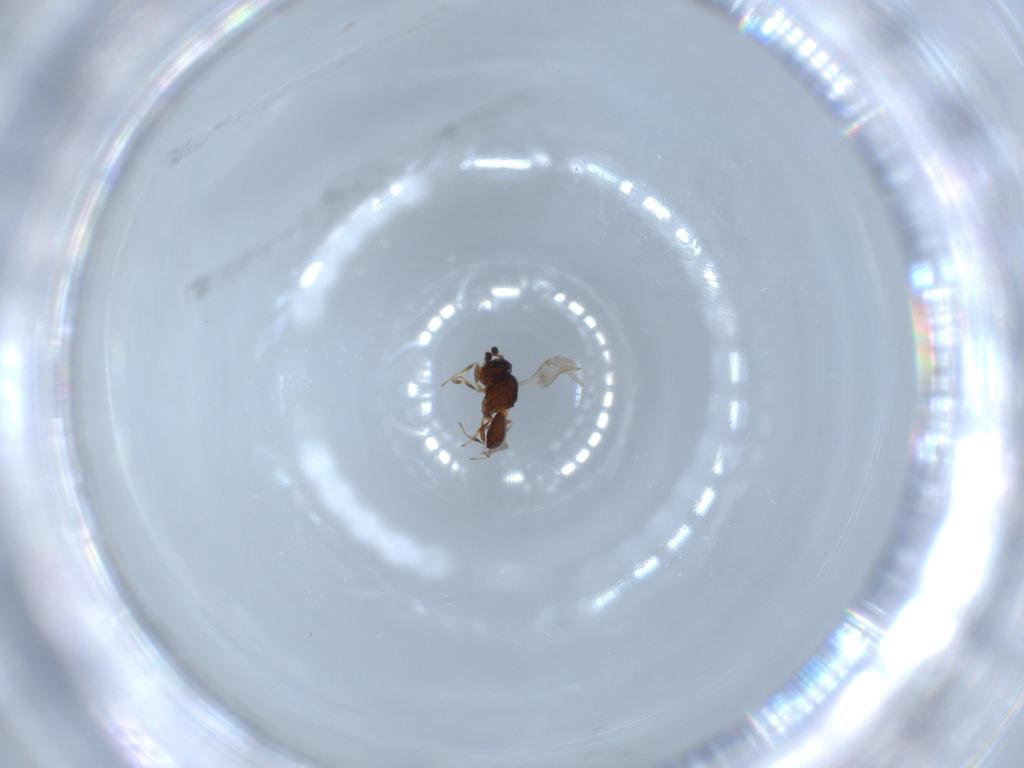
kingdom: Animalia
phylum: Arthropoda
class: Insecta
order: Hymenoptera
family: Scelionidae
